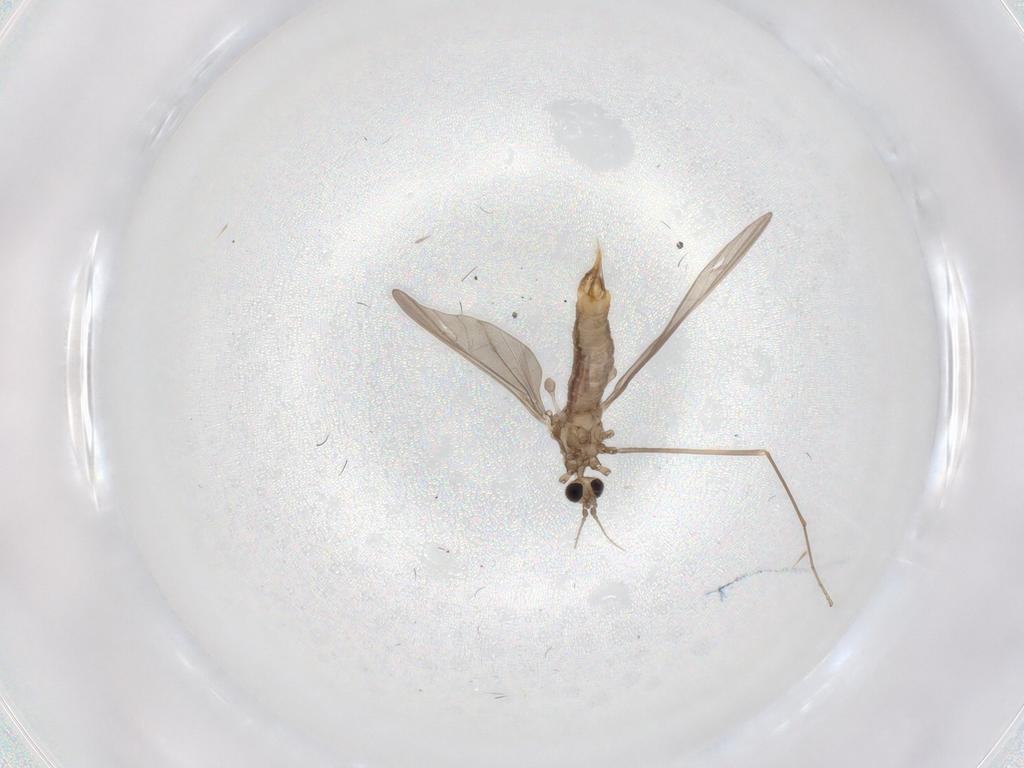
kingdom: Animalia
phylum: Arthropoda
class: Insecta
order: Diptera
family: Limoniidae
